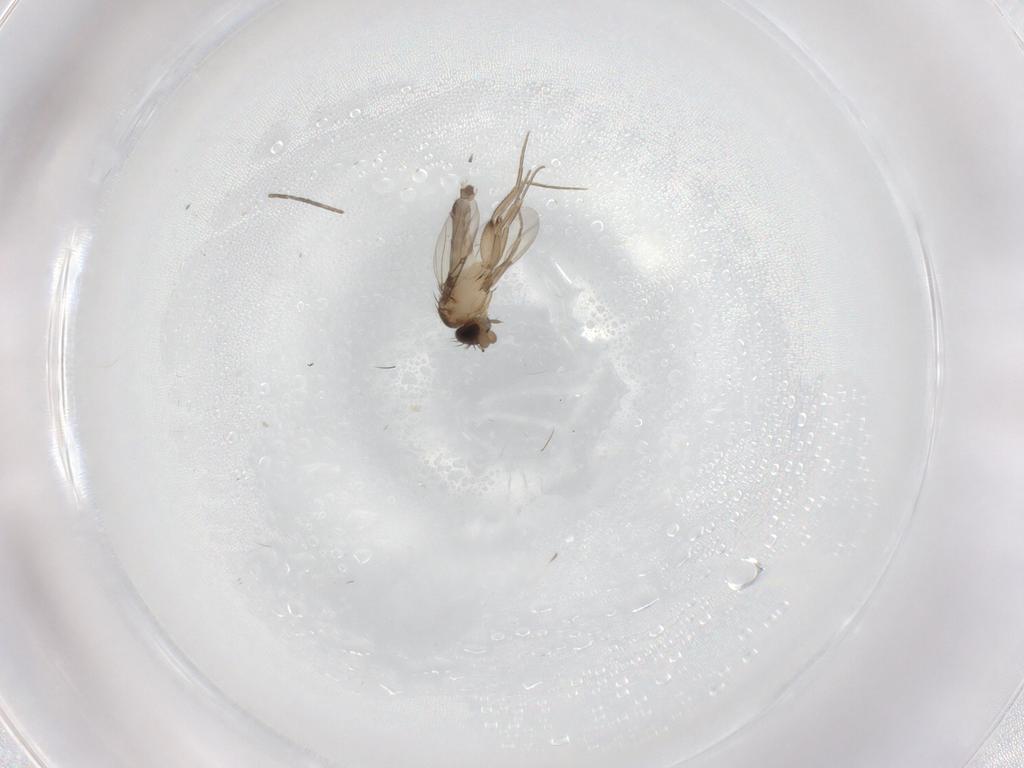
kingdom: Animalia
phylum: Arthropoda
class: Insecta
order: Diptera
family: Phoridae
